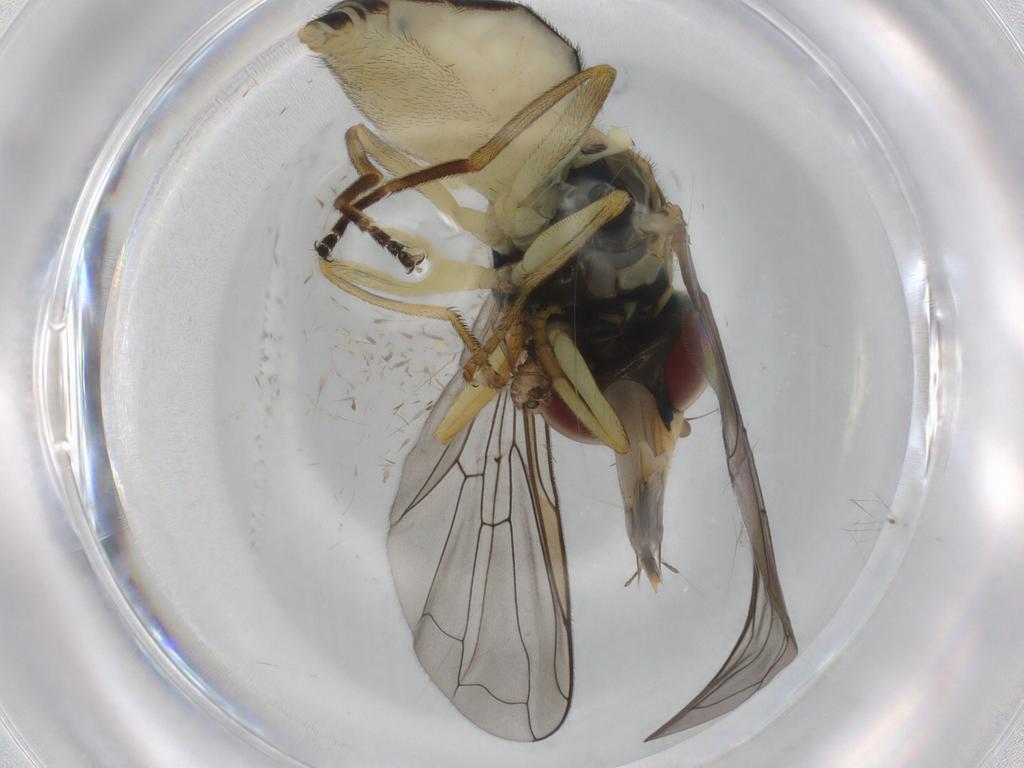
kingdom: Animalia
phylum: Arthropoda
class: Insecta
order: Diptera
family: Syrphidae
